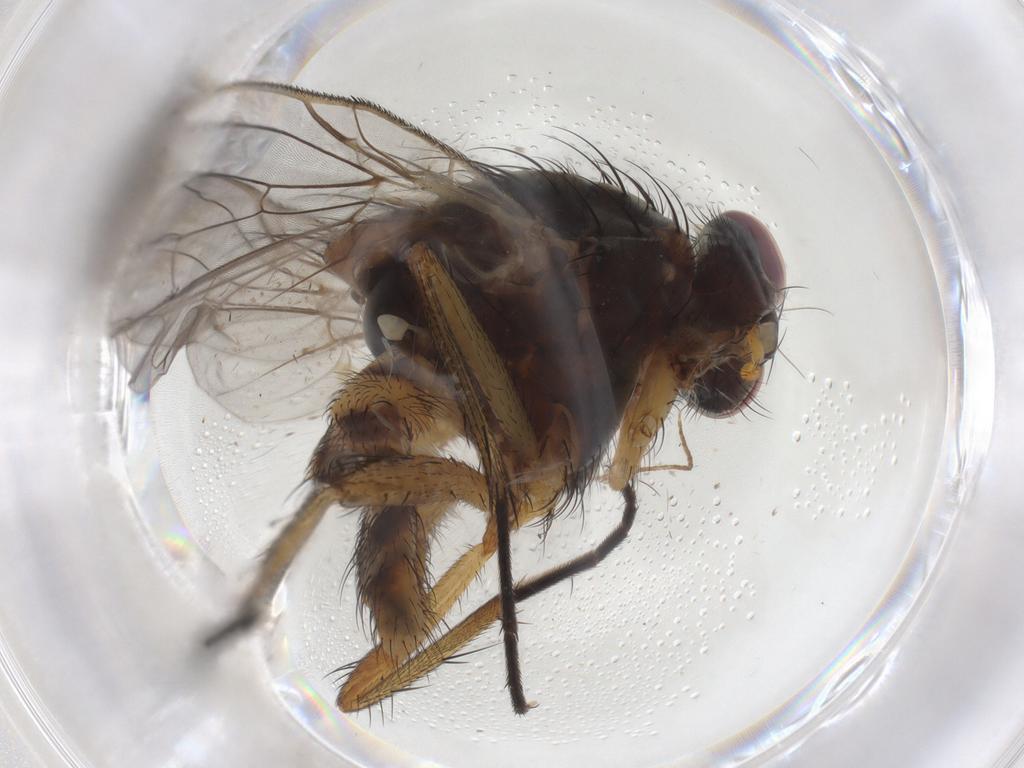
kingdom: Animalia
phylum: Arthropoda
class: Insecta
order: Diptera
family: Anthomyiidae
